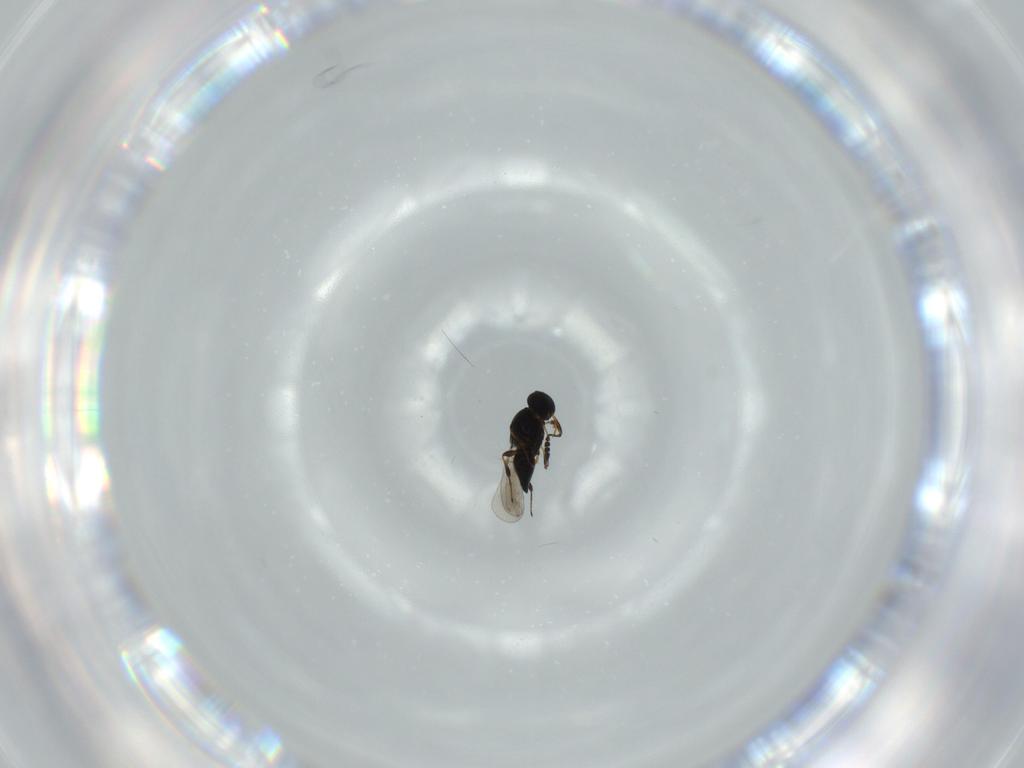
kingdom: Animalia
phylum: Arthropoda
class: Insecta
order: Hymenoptera
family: Platygastridae
